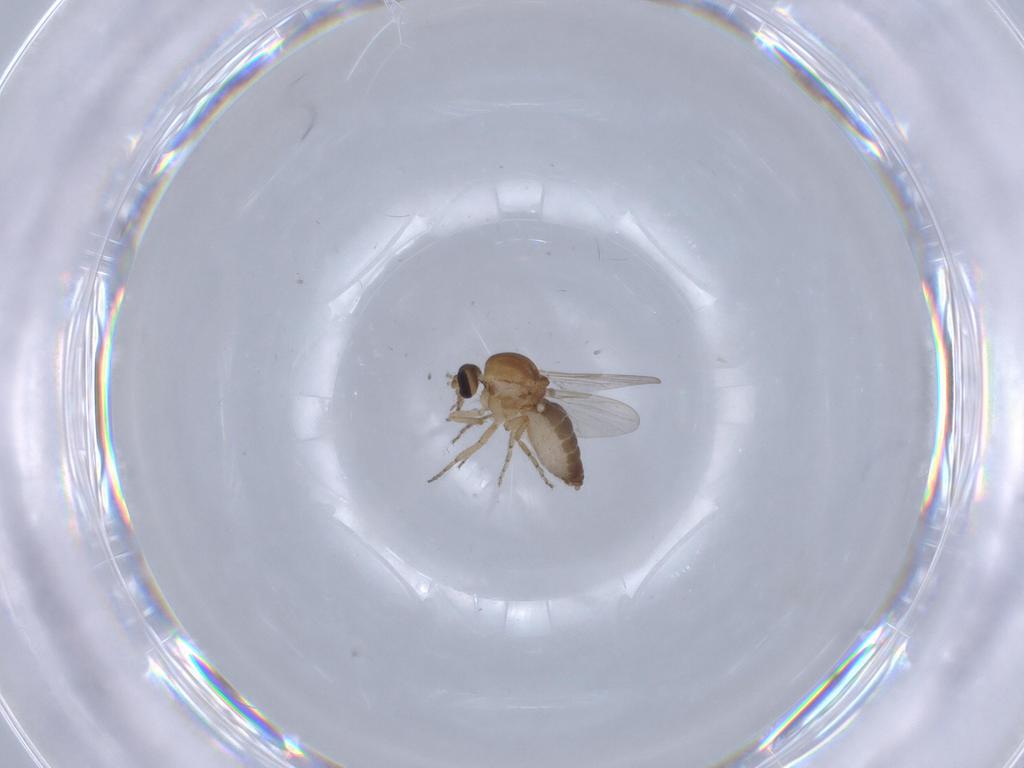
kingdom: Animalia
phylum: Arthropoda
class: Insecta
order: Diptera
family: Ceratopogonidae
